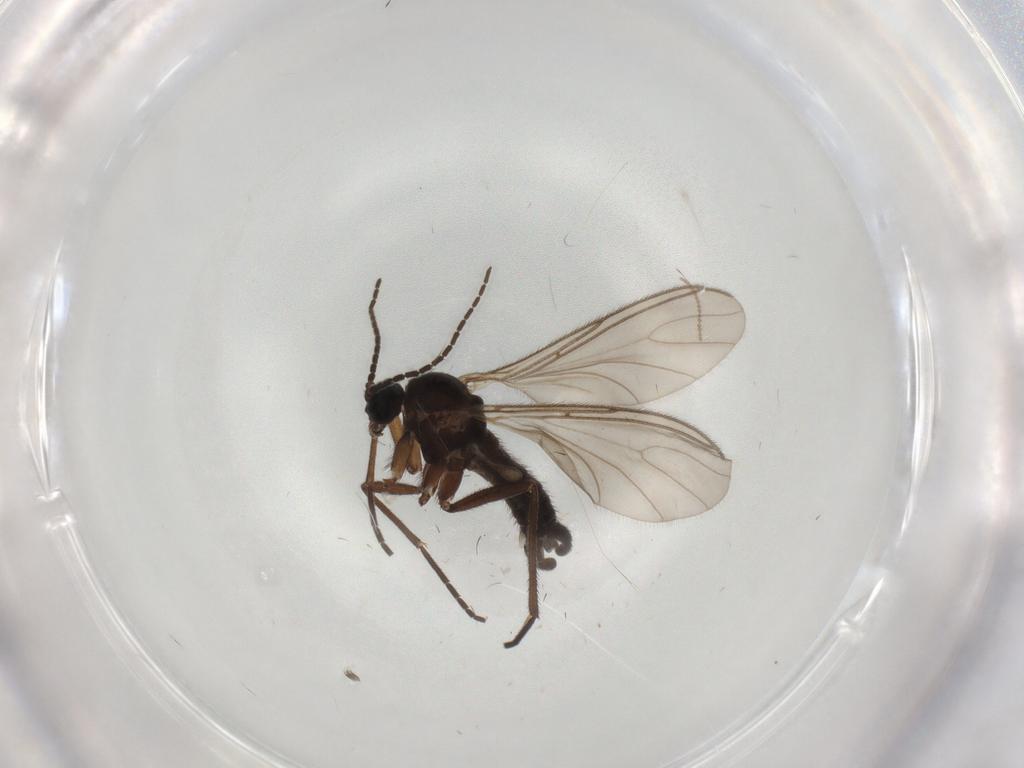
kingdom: Animalia
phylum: Arthropoda
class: Insecta
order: Diptera
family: Sciaridae
